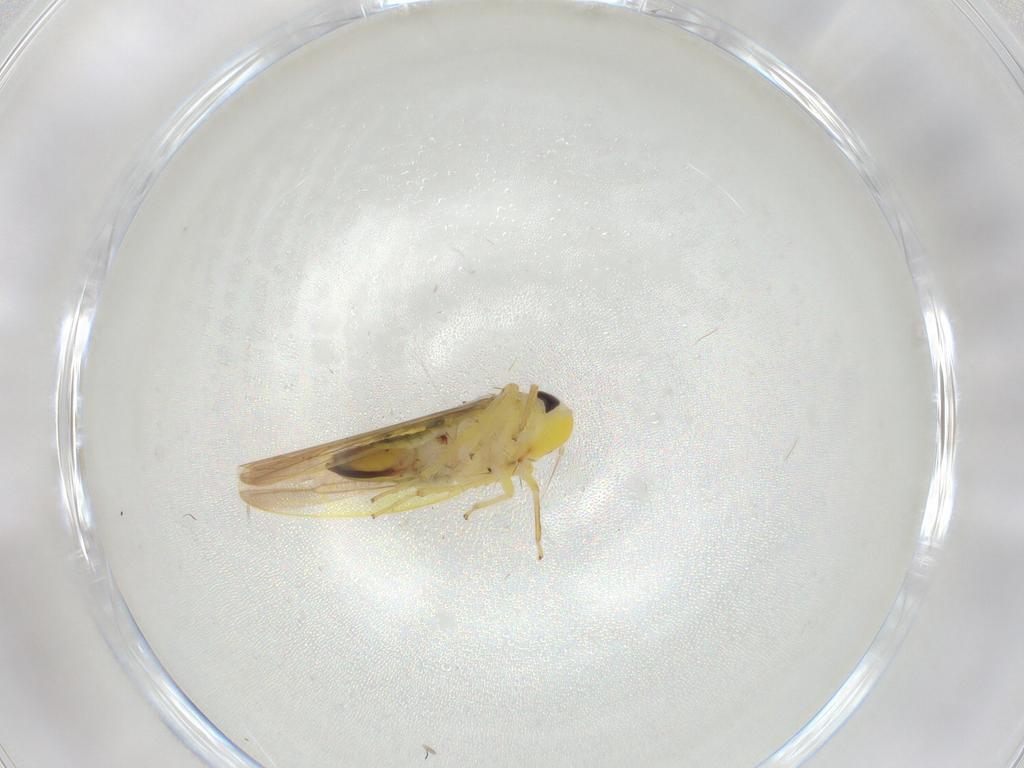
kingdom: Animalia
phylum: Arthropoda
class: Insecta
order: Hemiptera
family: Cicadellidae
